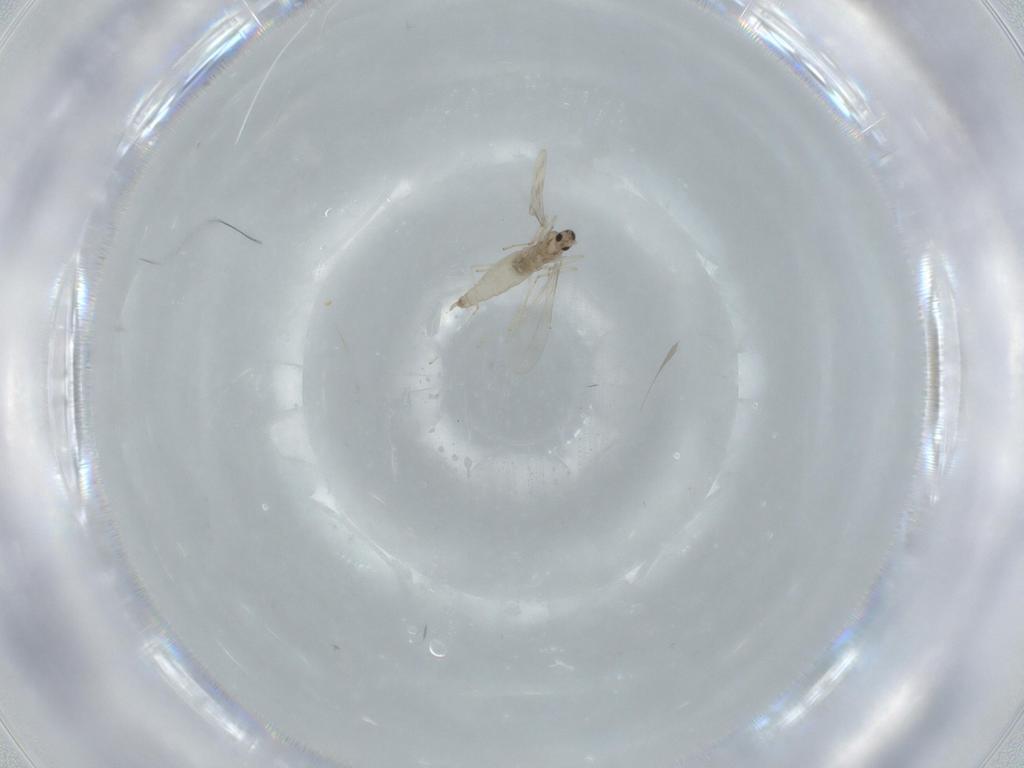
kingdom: Animalia
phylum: Arthropoda
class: Insecta
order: Diptera
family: Cecidomyiidae
